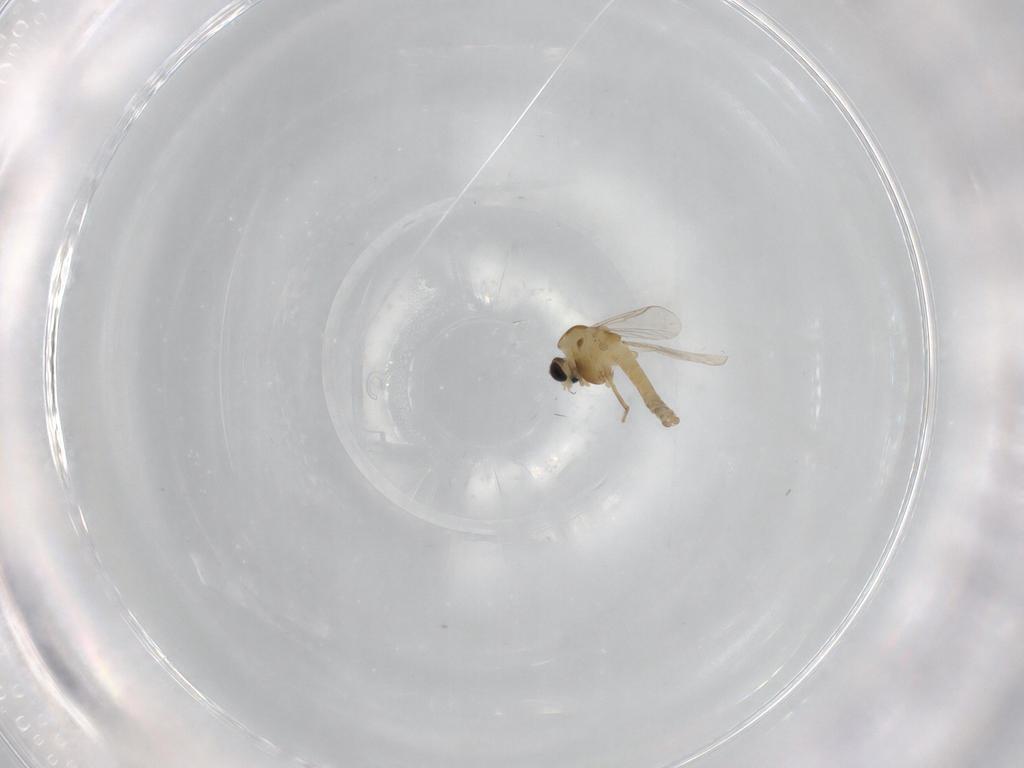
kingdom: Animalia
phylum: Arthropoda
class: Insecta
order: Diptera
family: Chironomidae
